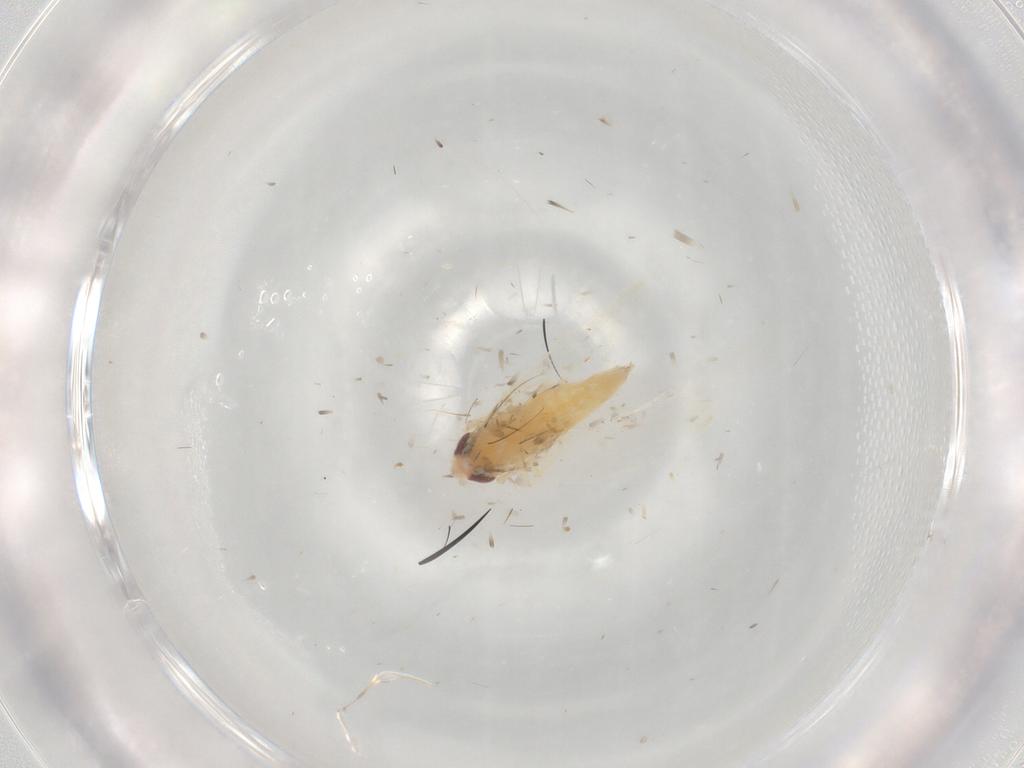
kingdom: Animalia
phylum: Arthropoda
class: Insecta
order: Hemiptera
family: Cicadellidae
